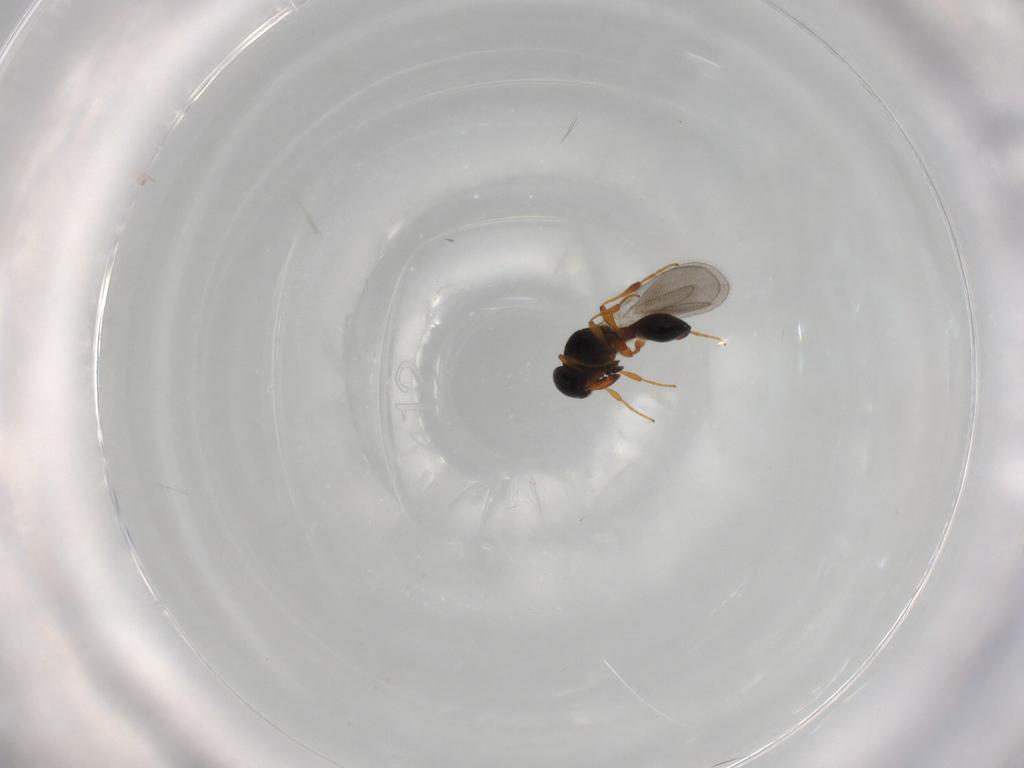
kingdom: Animalia
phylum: Arthropoda
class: Insecta
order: Hymenoptera
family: Platygastridae
